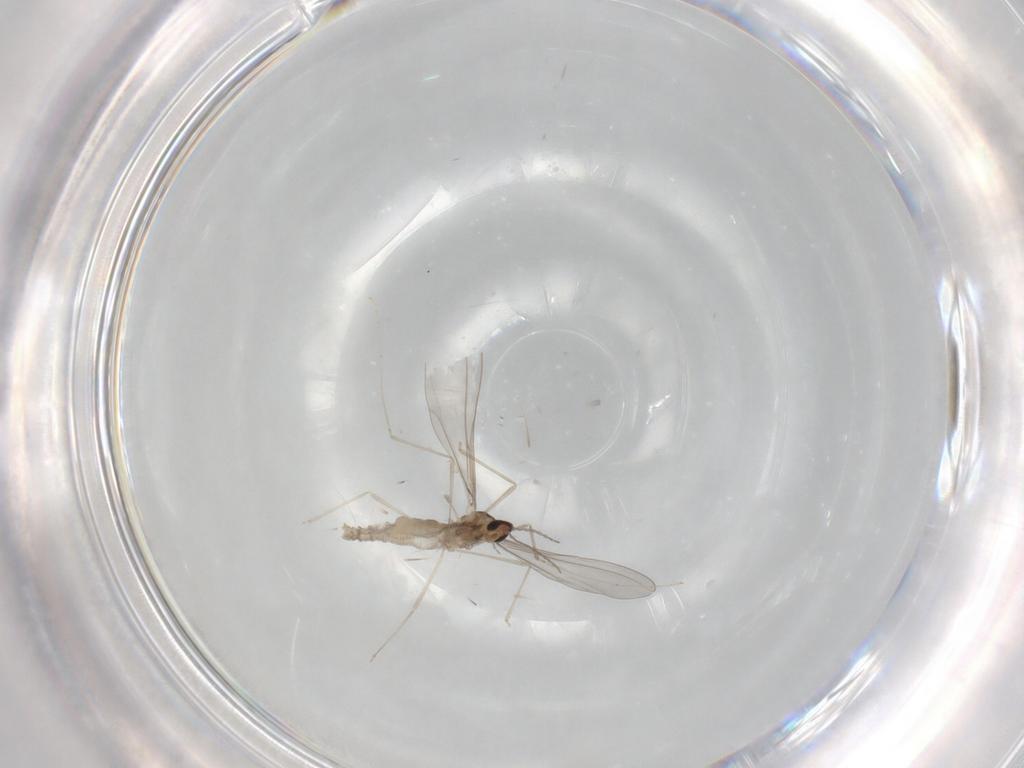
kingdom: Animalia
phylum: Arthropoda
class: Insecta
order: Diptera
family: Cecidomyiidae
